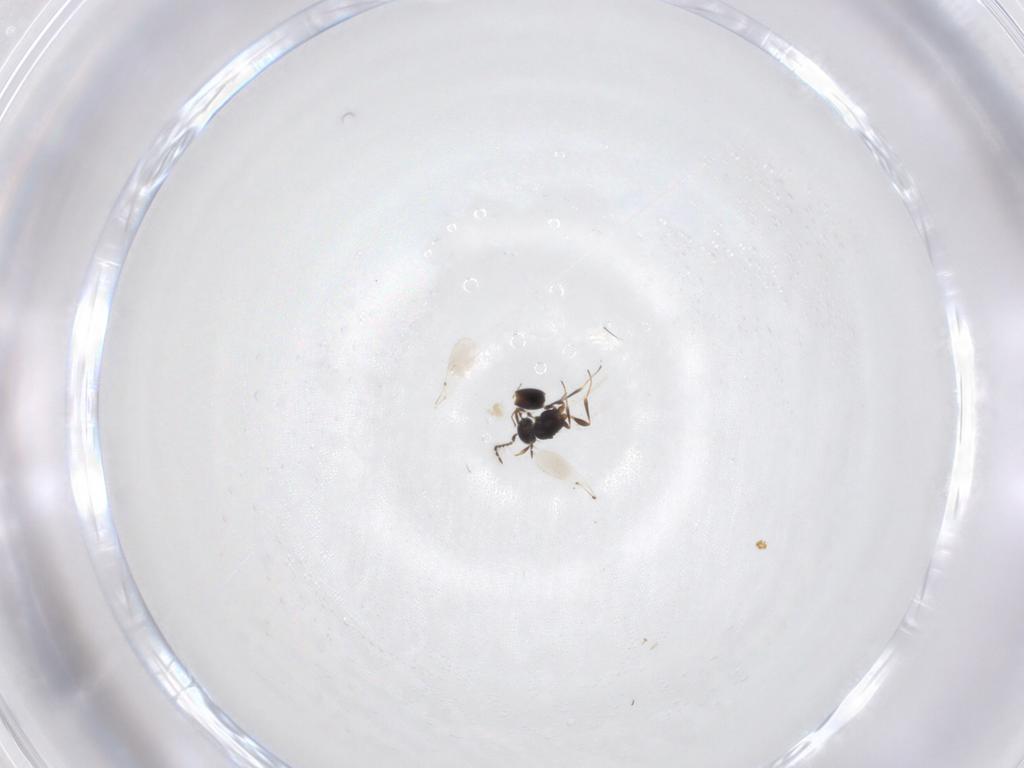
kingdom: Animalia
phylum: Arthropoda
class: Insecta
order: Hymenoptera
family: Platygastridae
